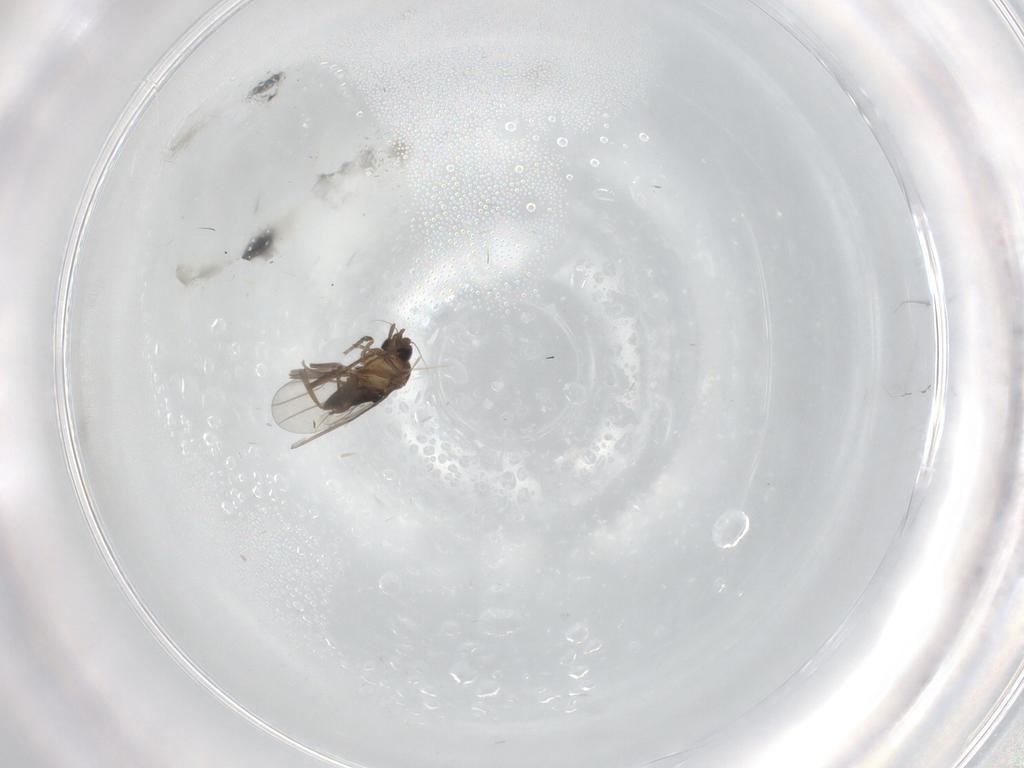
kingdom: Animalia
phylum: Arthropoda
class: Insecta
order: Diptera
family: Limoniidae
